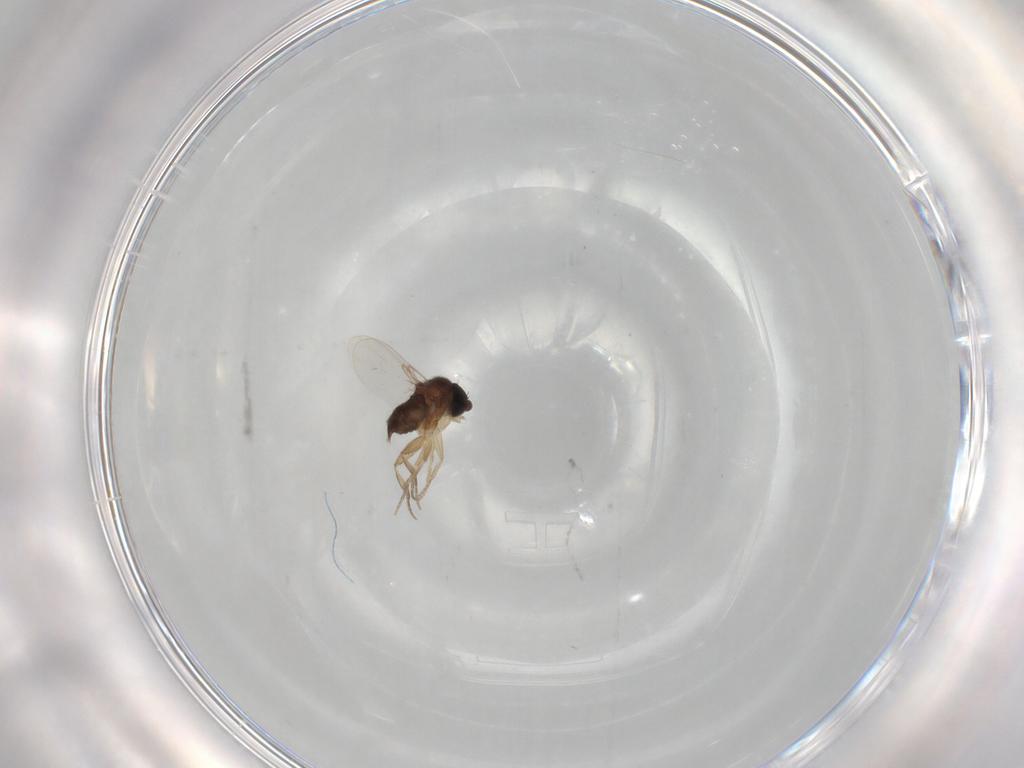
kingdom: Animalia
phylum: Arthropoda
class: Insecta
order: Diptera
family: Phoridae
